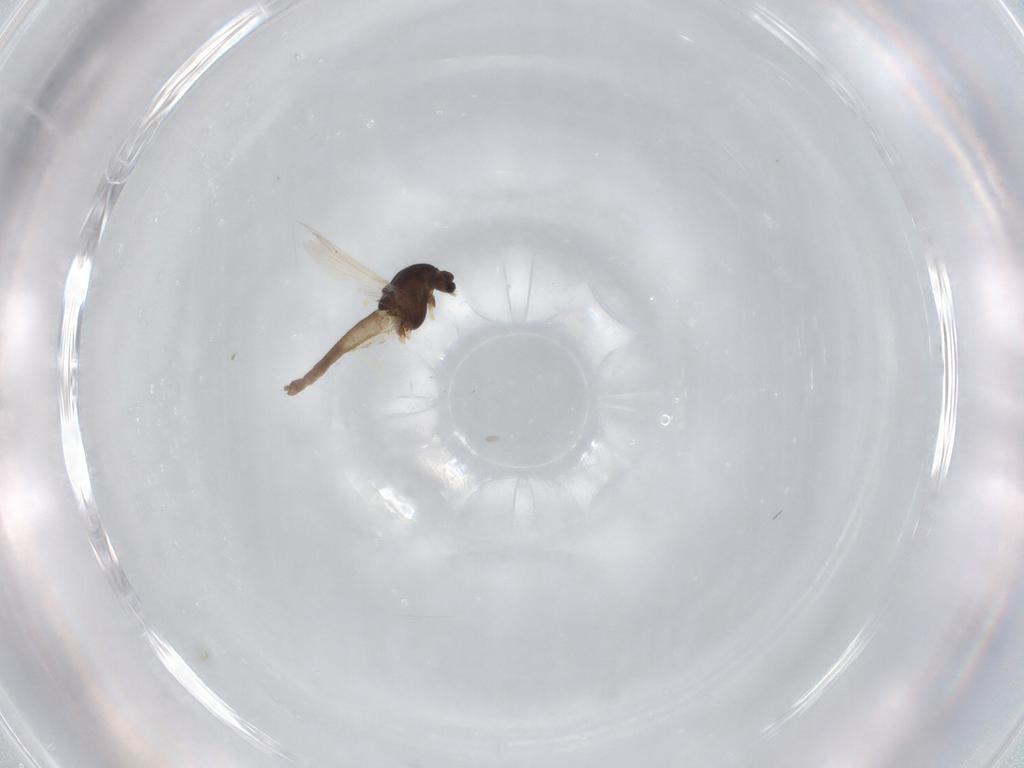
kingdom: Animalia
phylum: Arthropoda
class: Insecta
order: Diptera
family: Chironomidae
